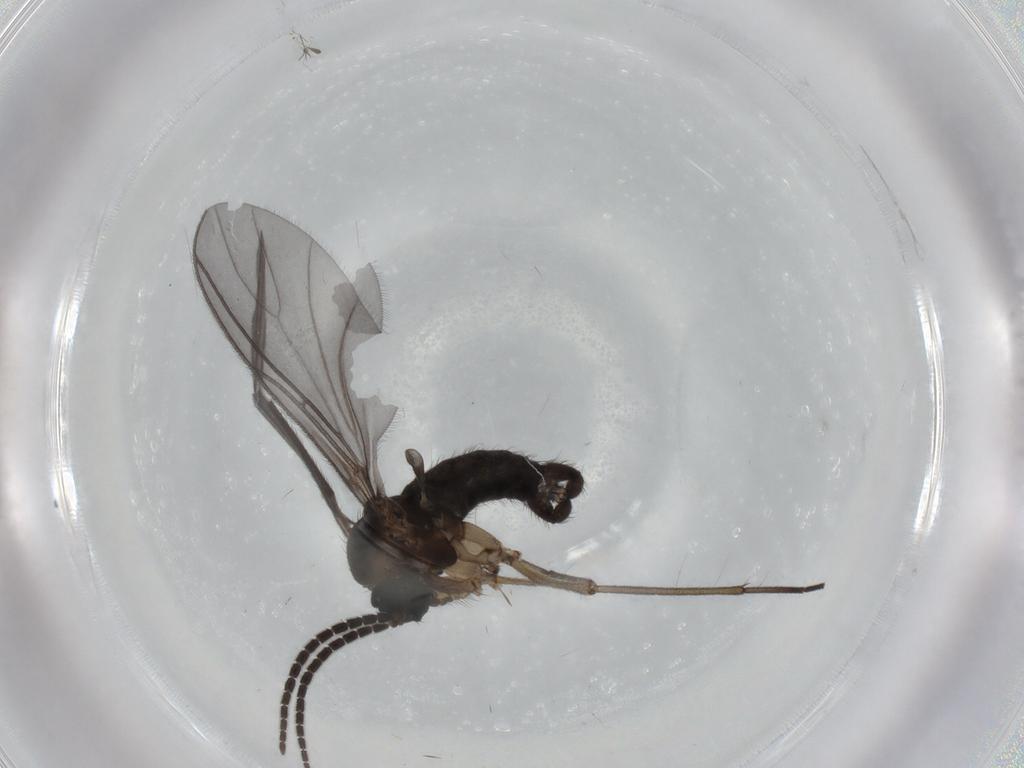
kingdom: Animalia
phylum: Arthropoda
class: Insecta
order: Diptera
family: Sciaridae
